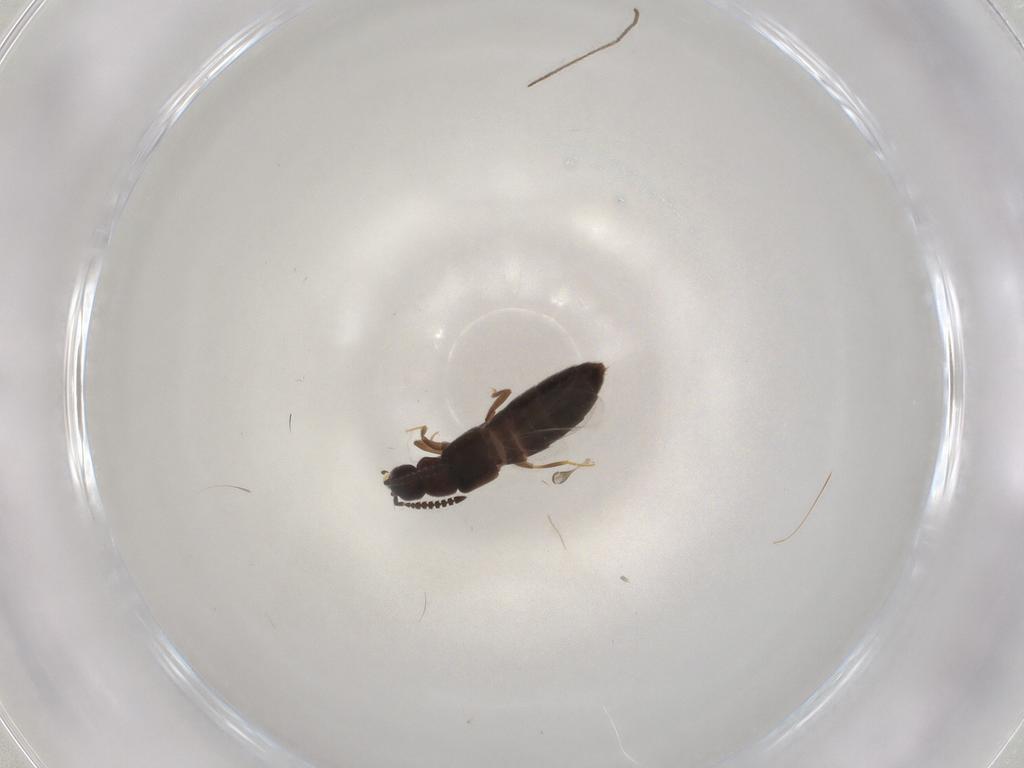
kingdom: Animalia
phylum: Arthropoda
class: Insecta
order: Coleoptera
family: Staphylinidae
